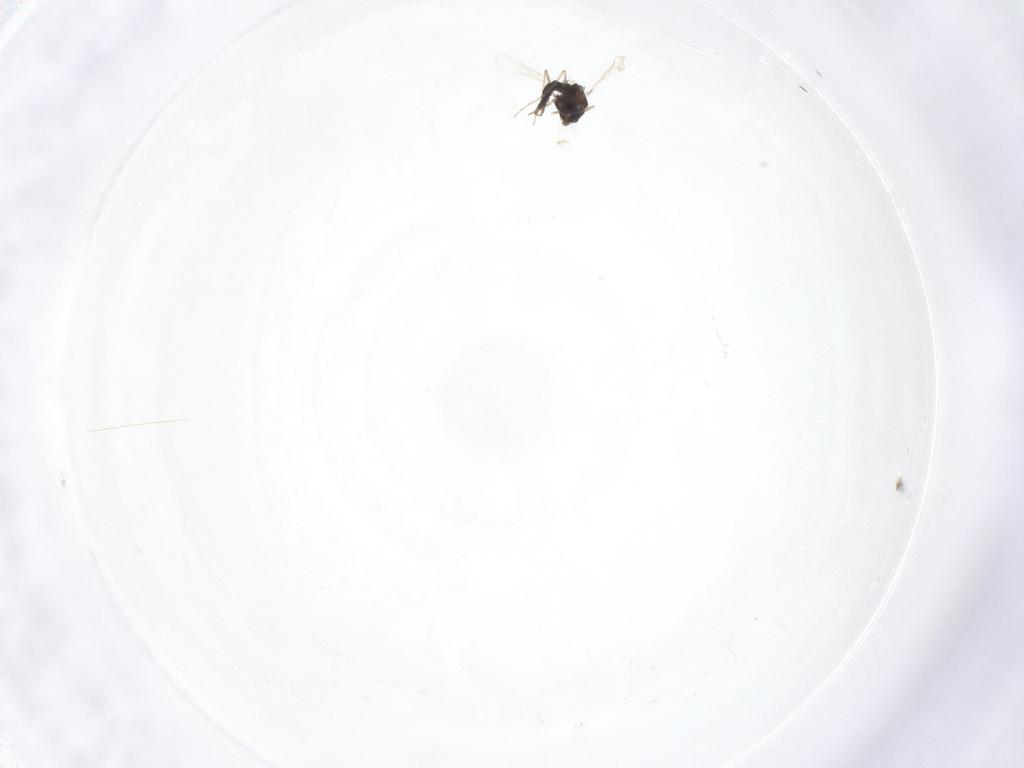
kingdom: Animalia
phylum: Arthropoda
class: Insecta
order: Diptera
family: Chironomidae
